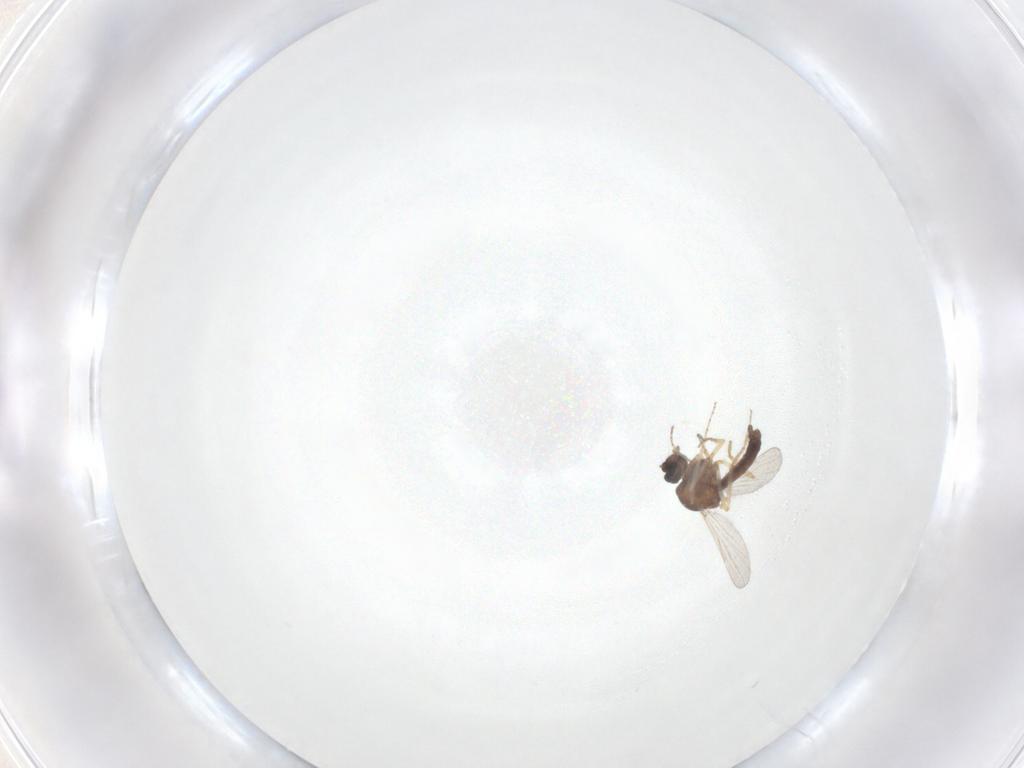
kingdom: Animalia
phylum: Arthropoda
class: Insecta
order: Diptera
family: Ceratopogonidae
